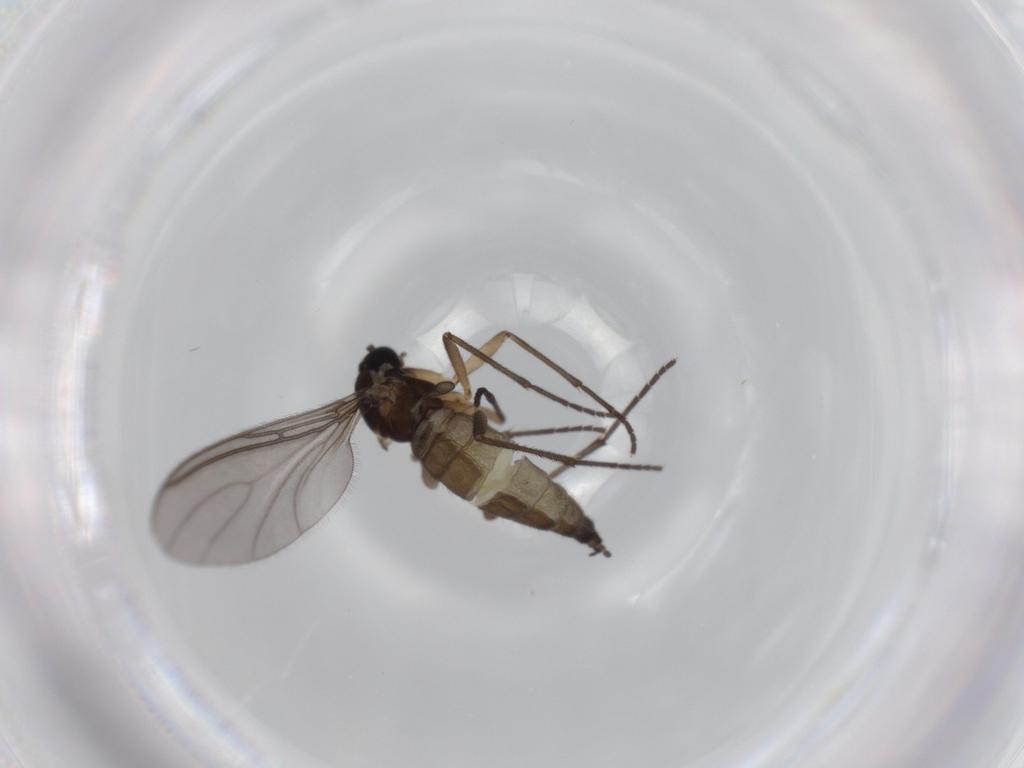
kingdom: Animalia
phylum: Arthropoda
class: Insecta
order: Diptera
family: Sciaridae
